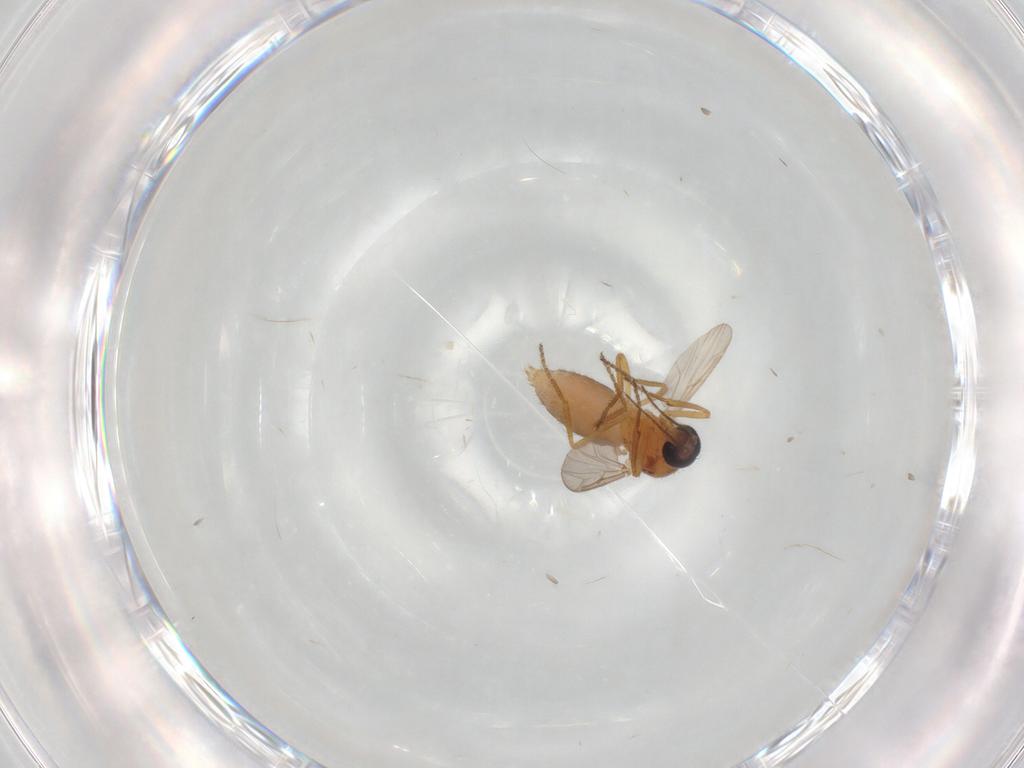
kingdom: Animalia
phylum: Arthropoda
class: Insecta
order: Diptera
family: Ceratopogonidae
